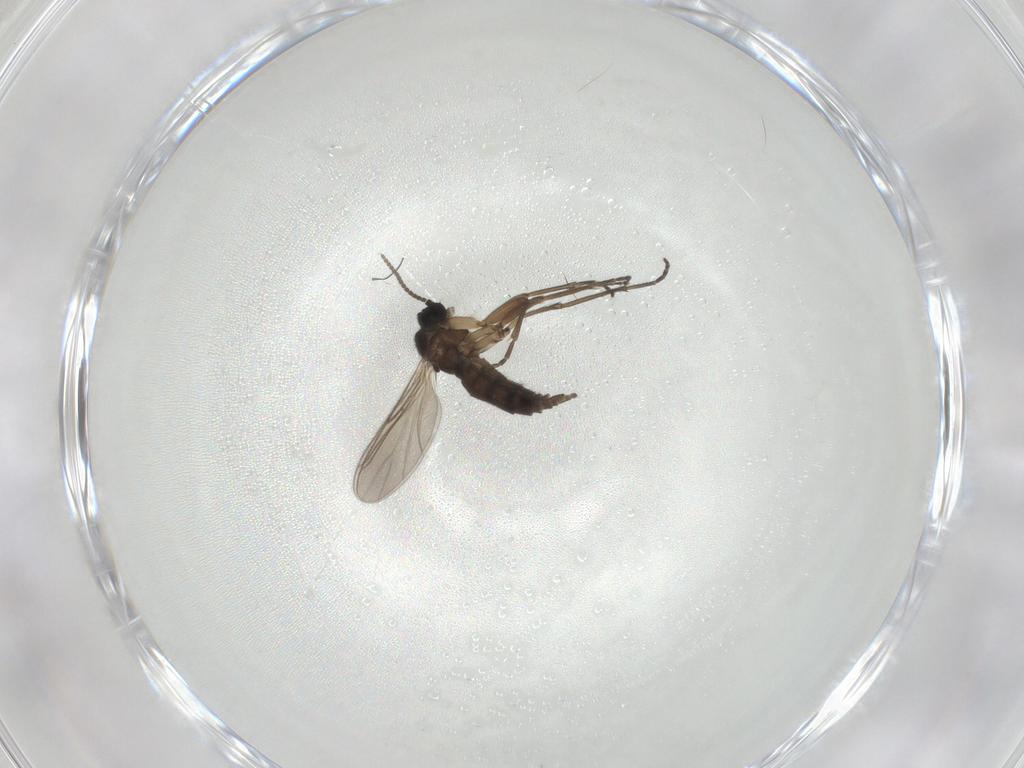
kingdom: Animalia
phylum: Arthropoda
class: Insecta
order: Diptera
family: Sciaridae
